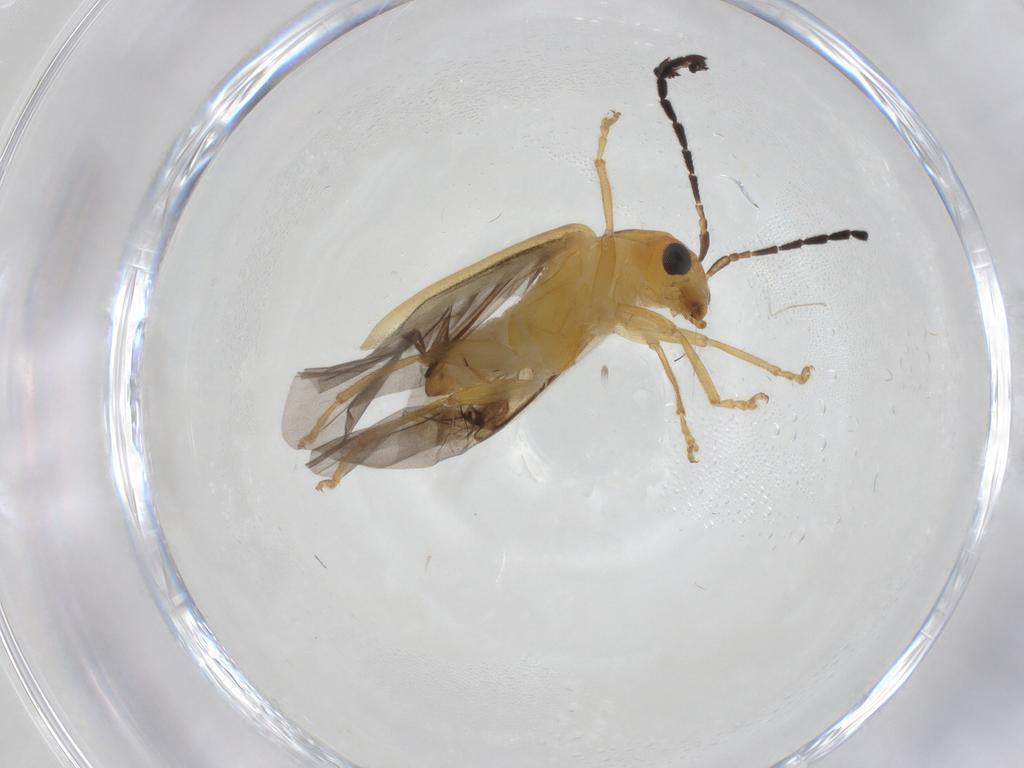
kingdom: Animalia
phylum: Arthropoda
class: Insecta
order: Coleoptera
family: Chrysomelidae
